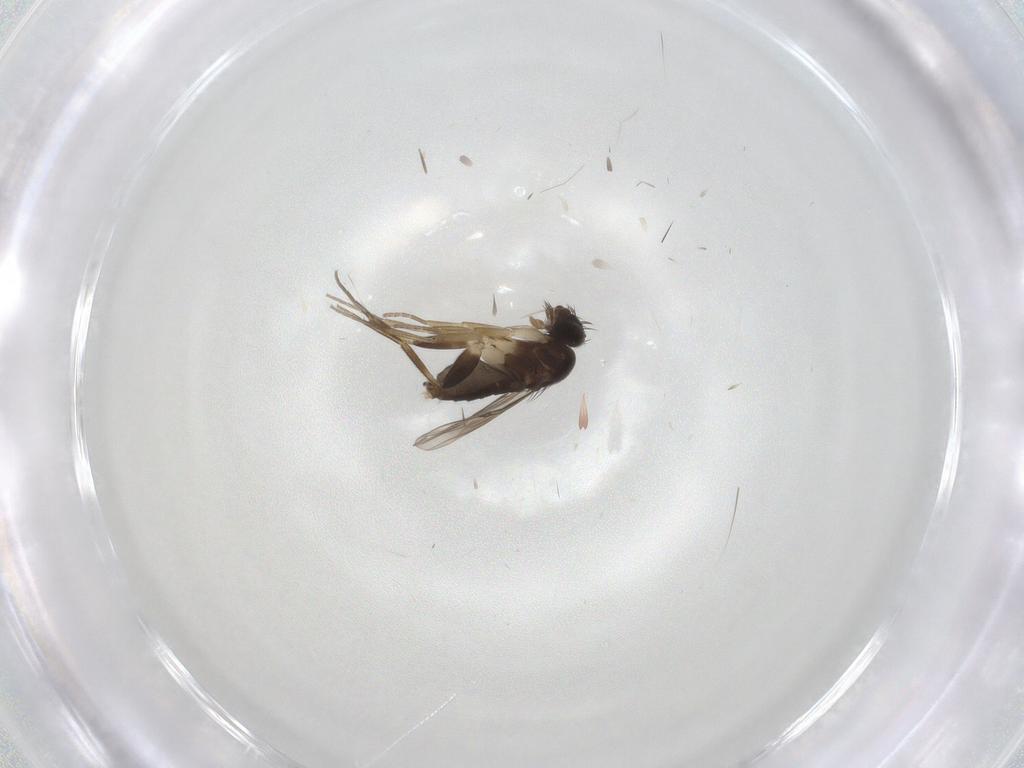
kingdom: Animalia
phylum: Arthropoda
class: Insecta
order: Diptera
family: Phoridae
